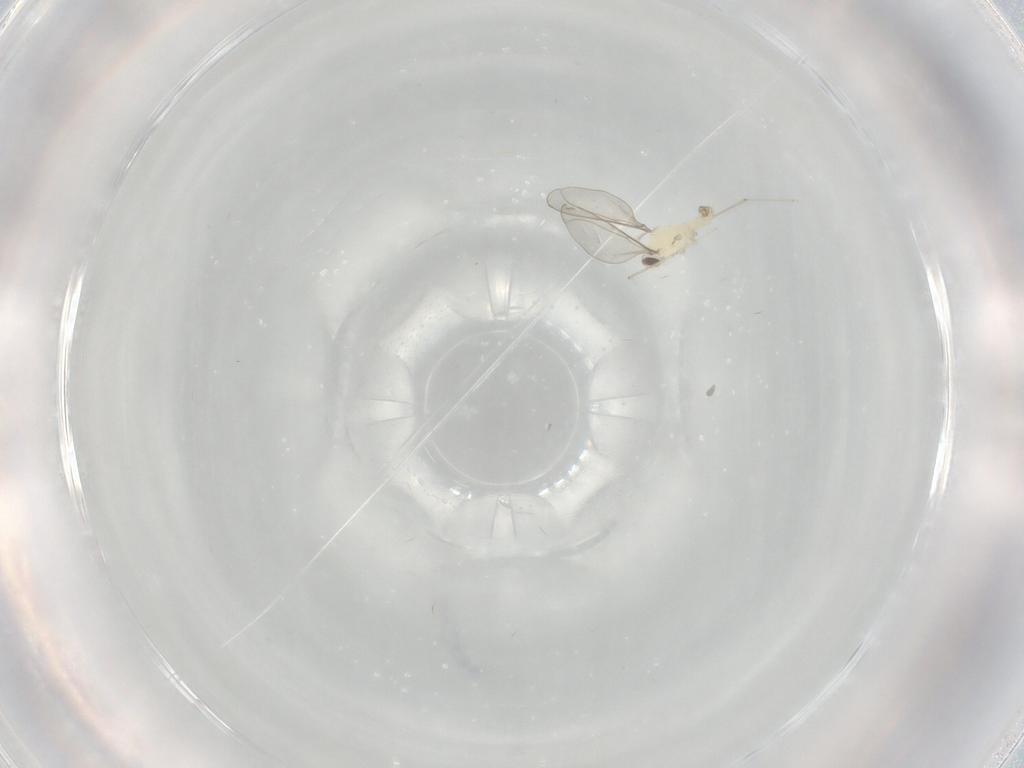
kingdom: Animalia
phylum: Arthropoda
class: Insecta
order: Diptera
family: Cecidomyiidae
